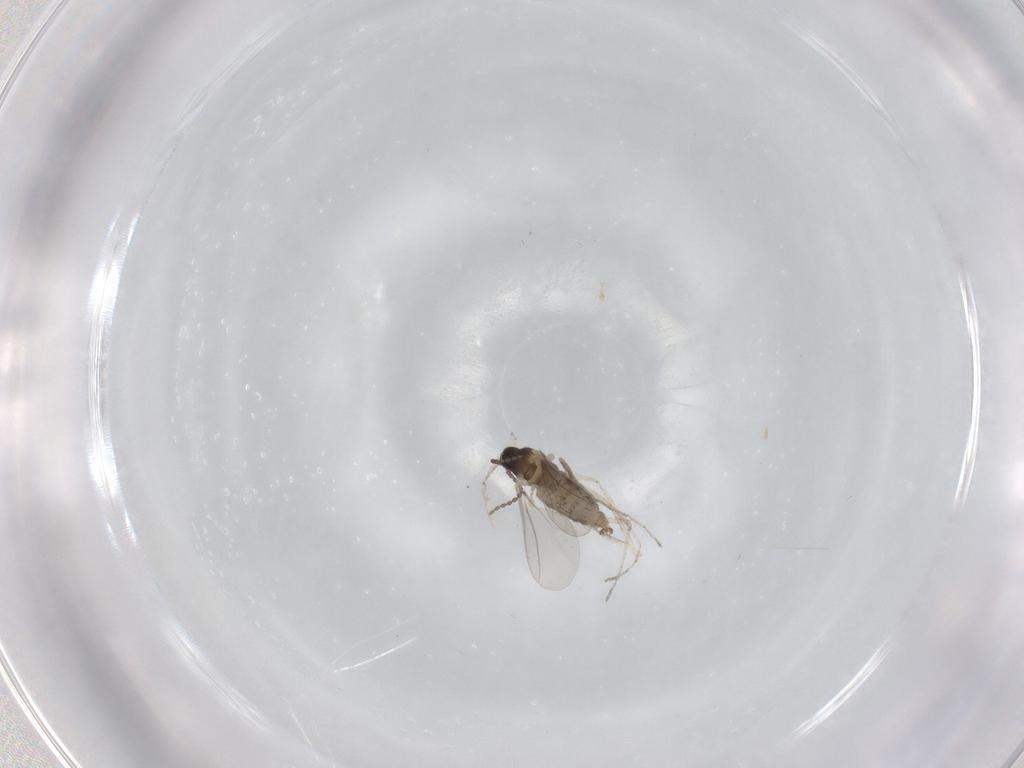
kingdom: Animalia
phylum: Arthropoda
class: Insecta
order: Diptera
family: Cecidomyiidae
